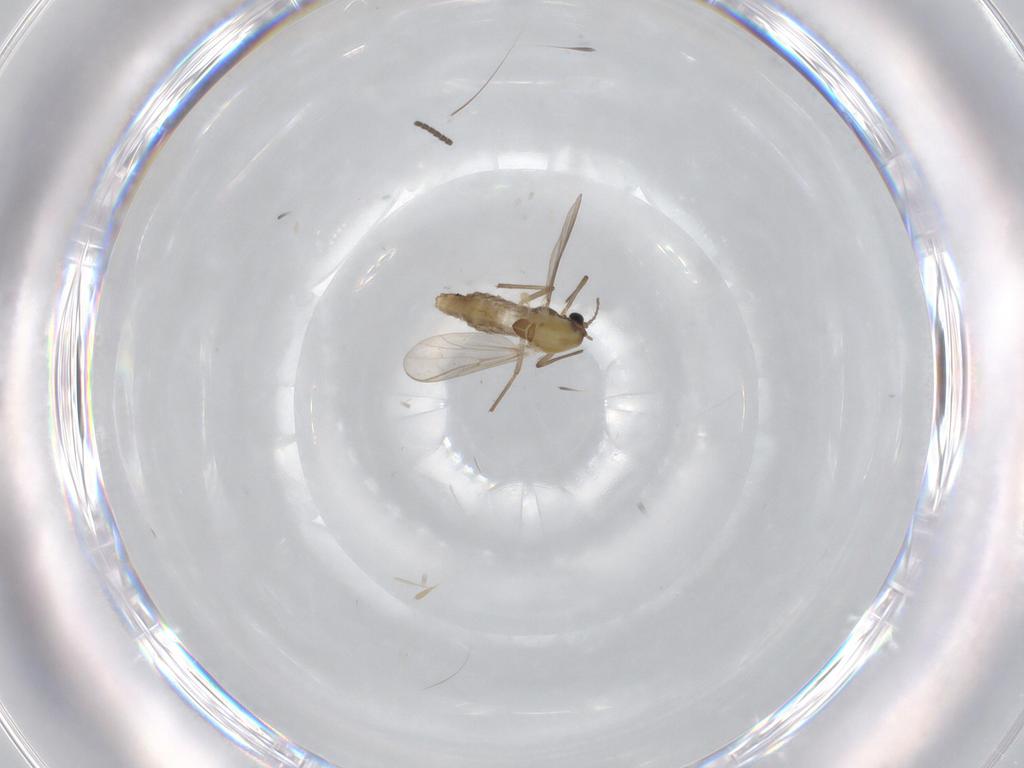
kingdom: Animalia
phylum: Arthropoda
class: Insecta
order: Diptera
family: Chironomidae
